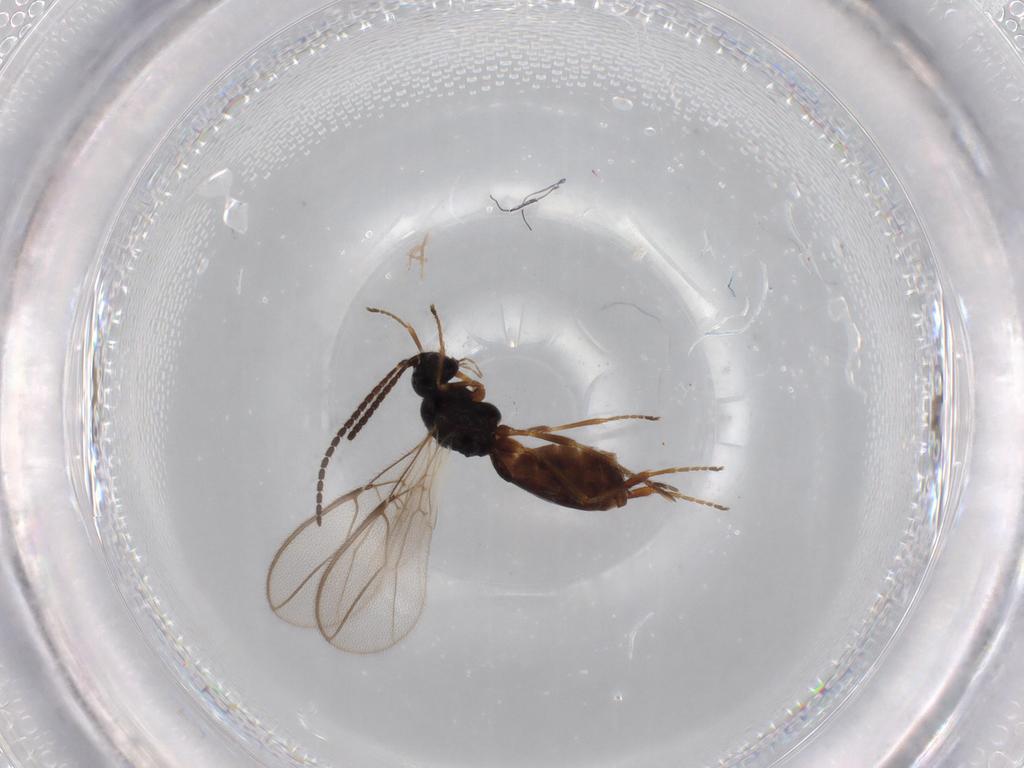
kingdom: Animalia
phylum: Arthropoda
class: Insecta
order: Hymenoptera
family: Braconidae
